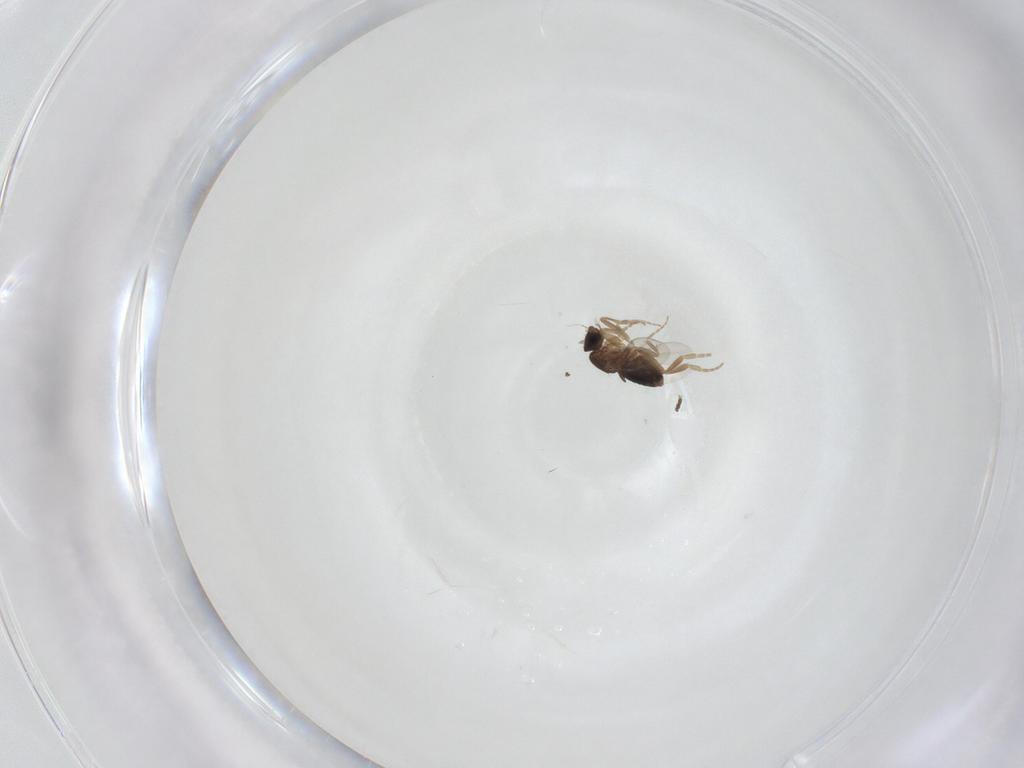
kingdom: Animalia
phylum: Arthropoda
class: Insecta
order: Diptera
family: Phoridae
